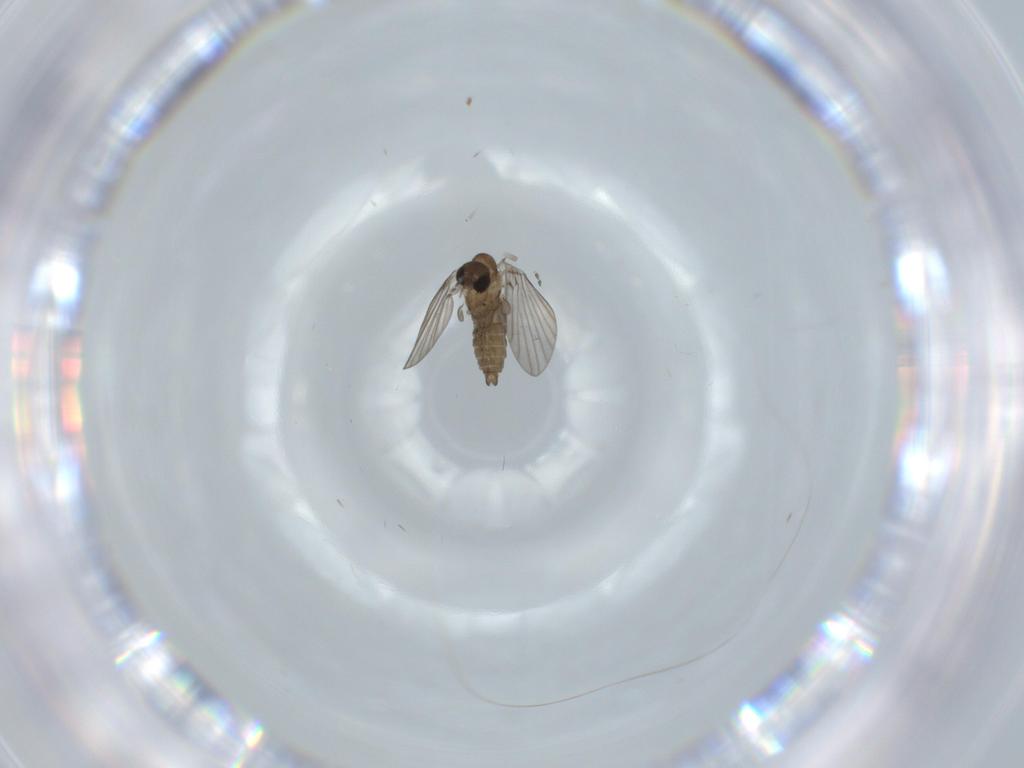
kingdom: Animalia
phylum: Arthropoda
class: Insecta
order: Diptera
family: Psychodidae
